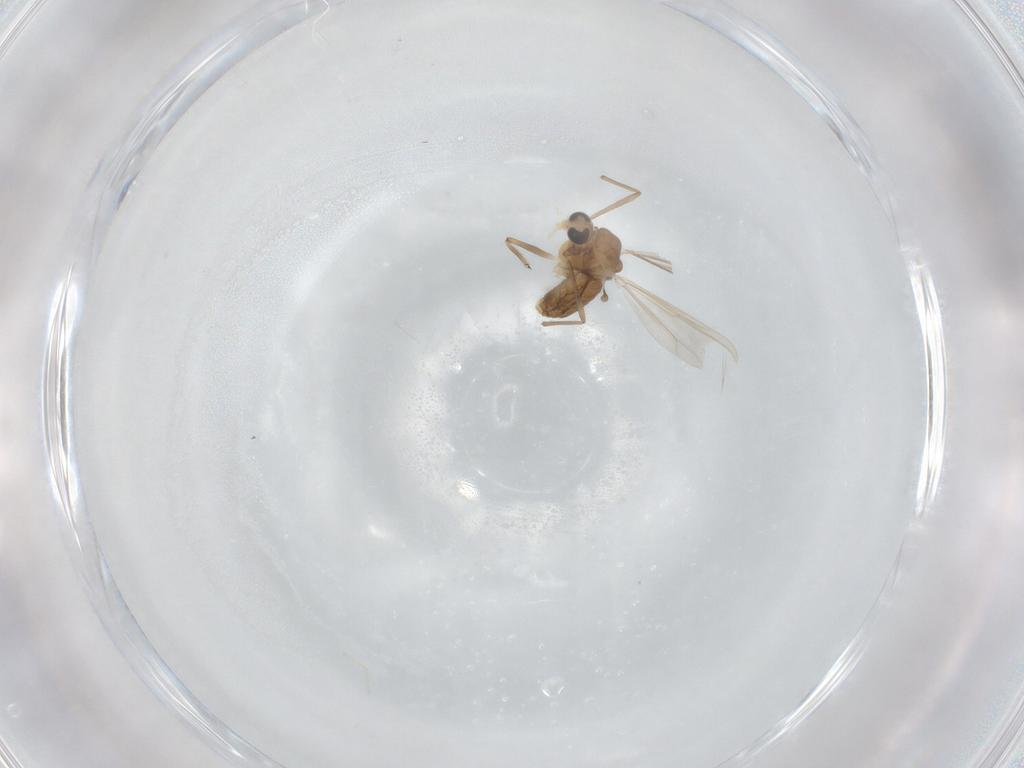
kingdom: Animalia
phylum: Arthropoda
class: Insecta
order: Diptera
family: Chironomidae
